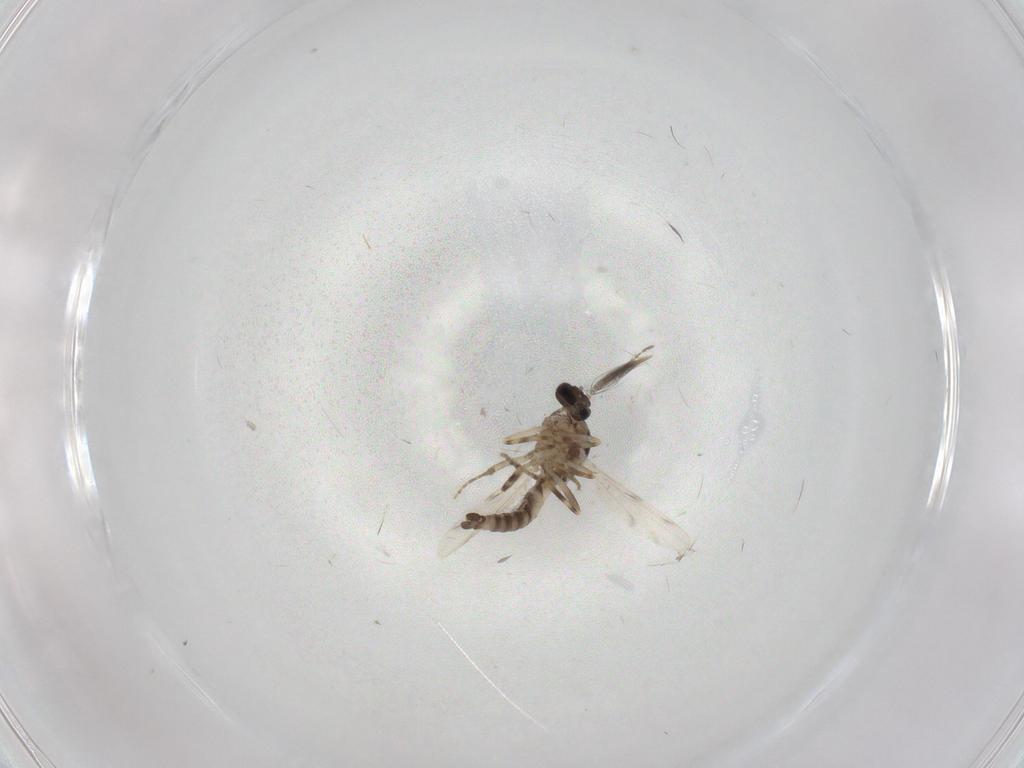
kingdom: Animalia
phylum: Arthropoda
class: Insecta
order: Diptera
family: Ceratopogonidae
